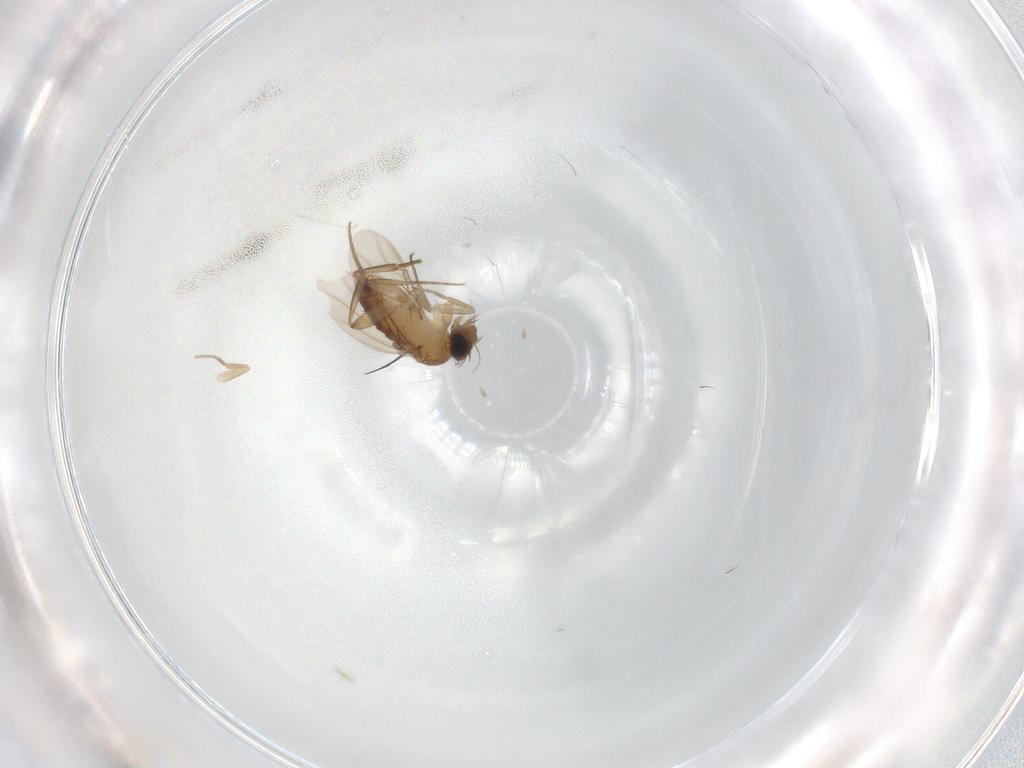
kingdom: Animalia
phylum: Arthropoda
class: Insecta
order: Diptera
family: Phoridae
